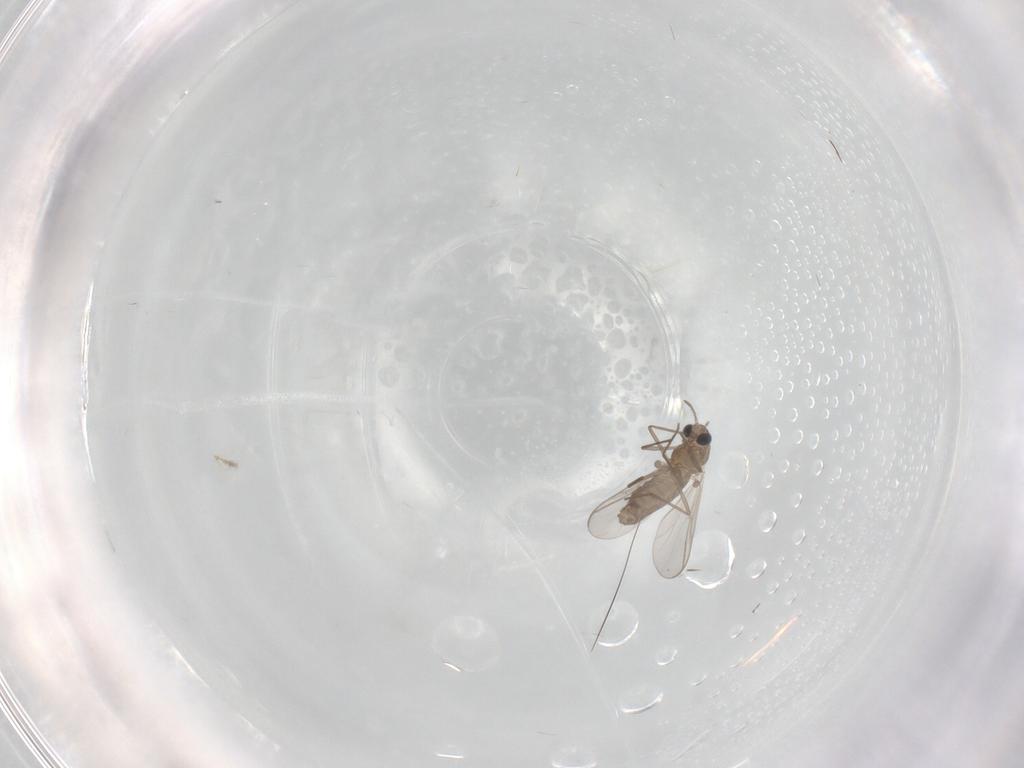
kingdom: Animalia
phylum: Arthropoda
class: Insecta
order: Diptera
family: Chironomidae
